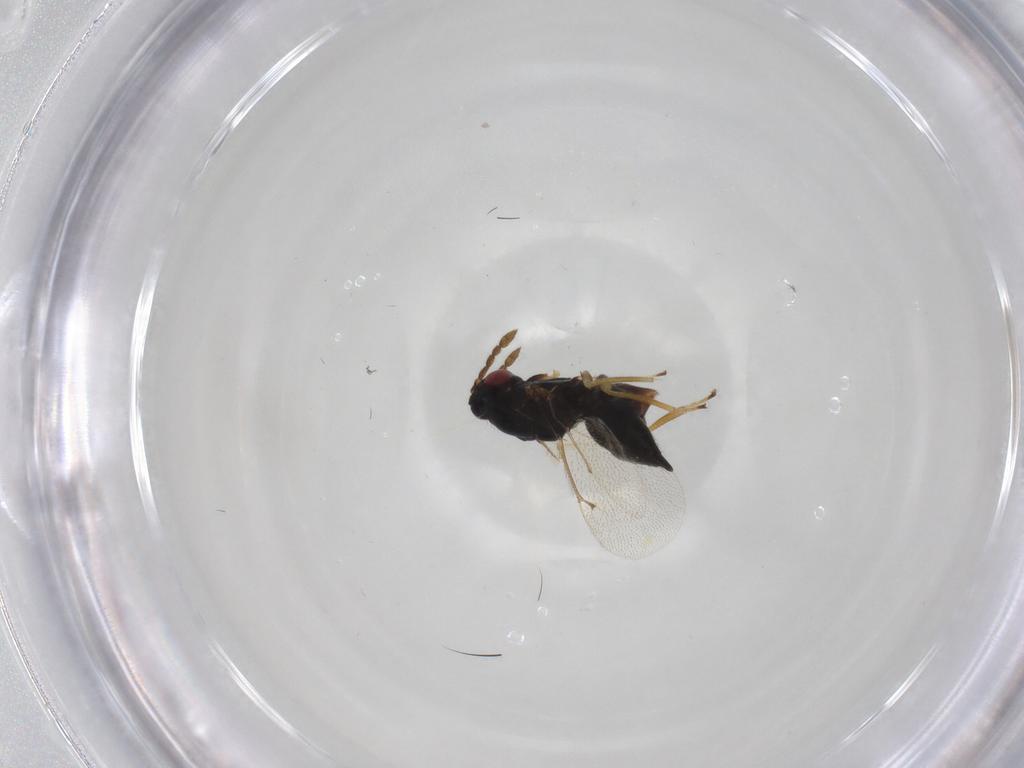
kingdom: Animalia
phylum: Arthropoda
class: Insecta
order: Hymenoptera
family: Eulophidae
